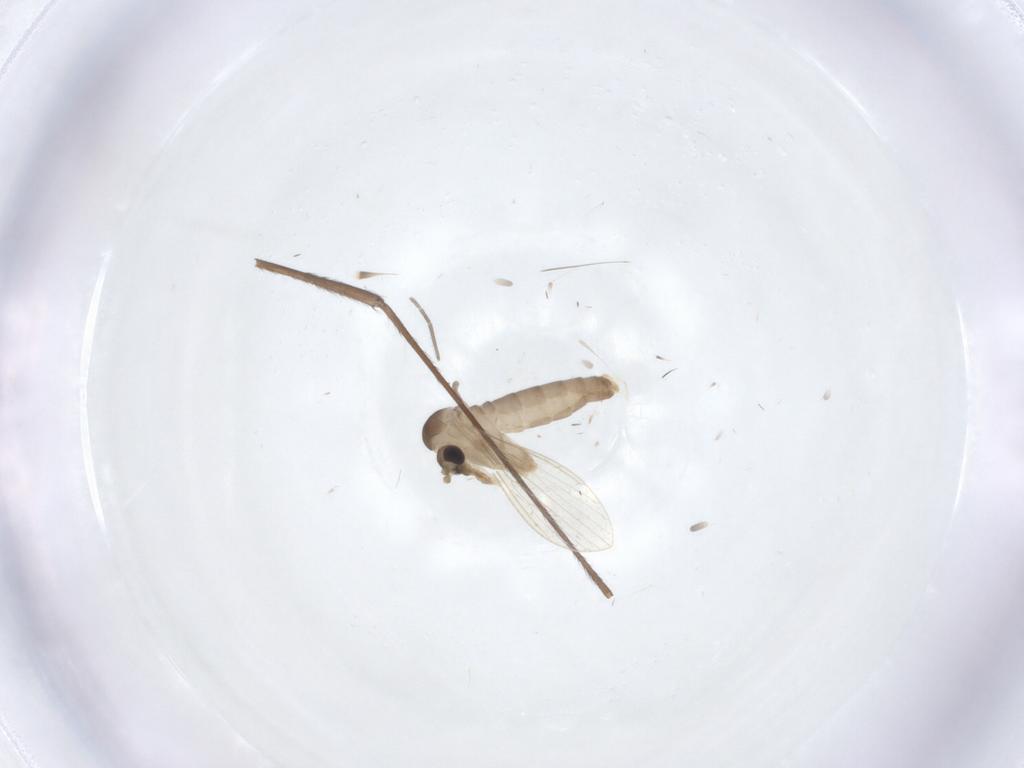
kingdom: Animalia
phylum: Arthropoda
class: Insecta
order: Diptera
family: Psychodidae
